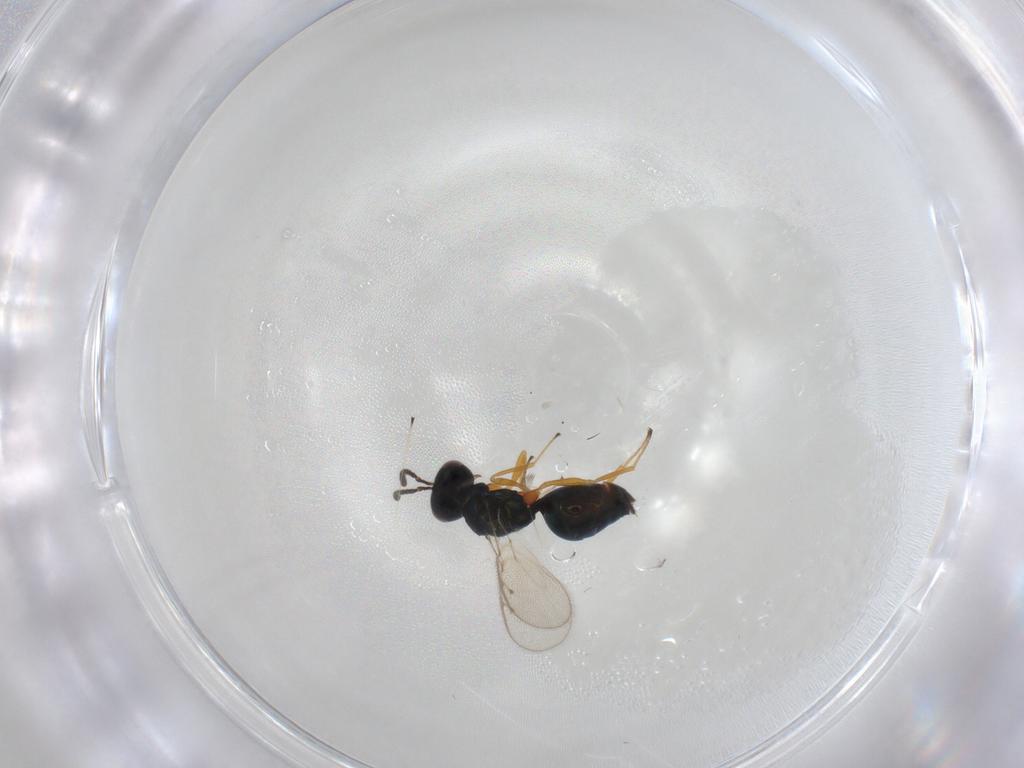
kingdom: Animalia
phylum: Arthropoda
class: Insecta
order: Hymenoptera
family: Pteromalidae
